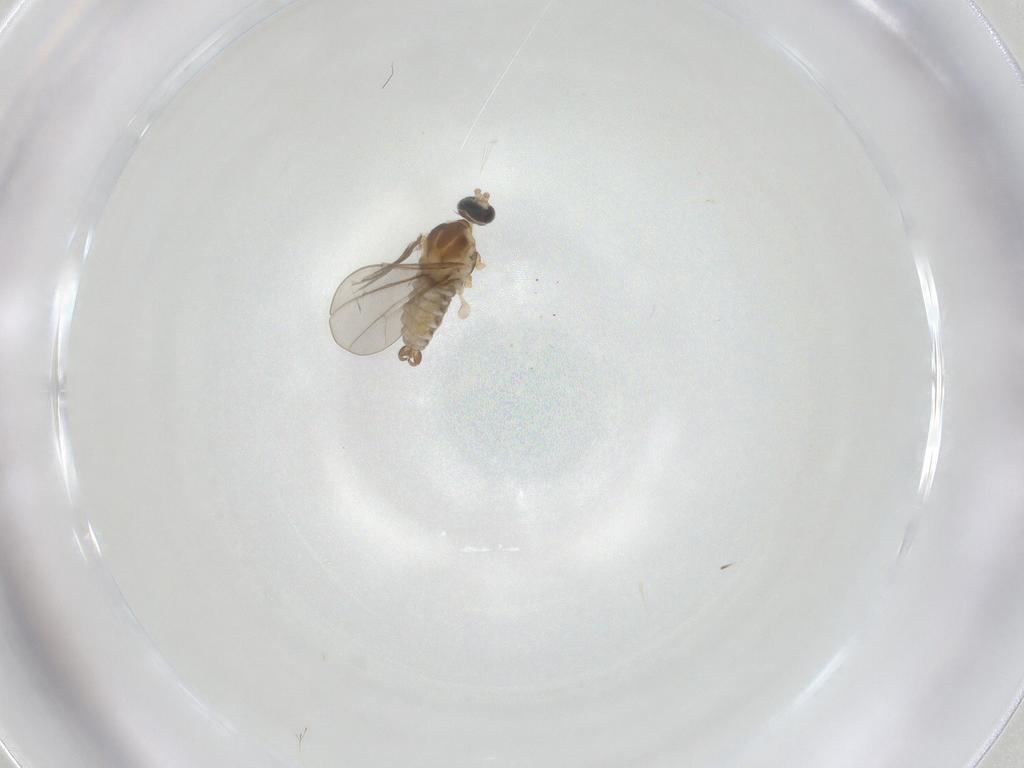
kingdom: Animalia
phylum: Arthropoda
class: Insecta
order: Diptera
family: Cecidomyiidae
